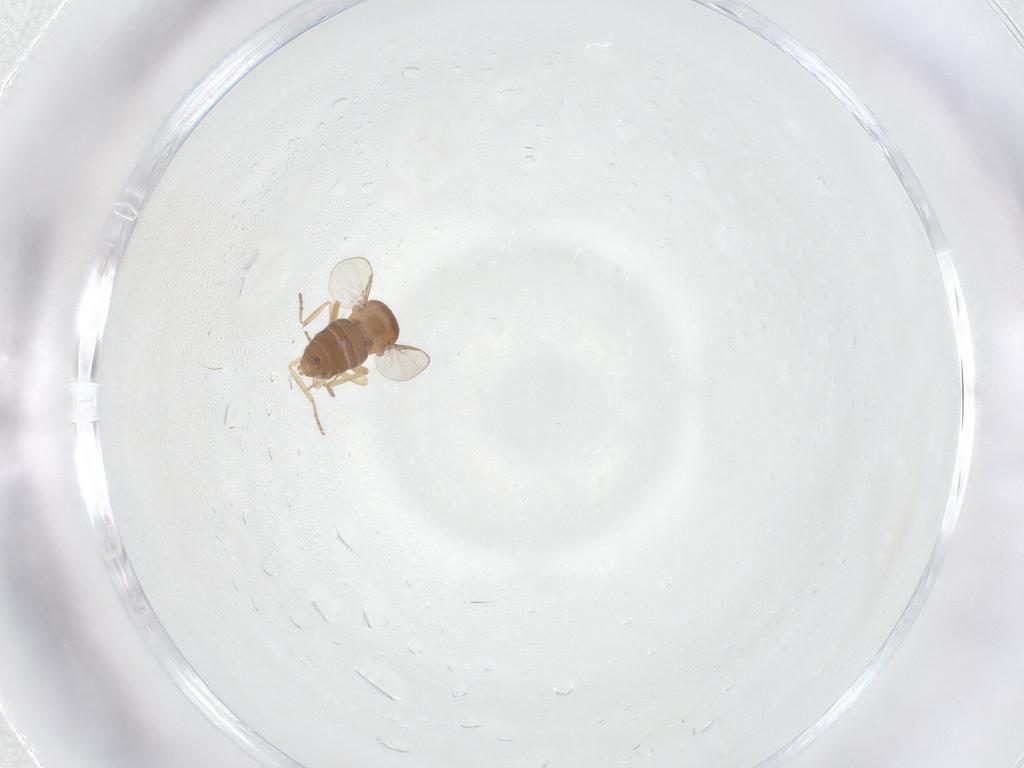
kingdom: Animalia
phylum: Arthropoda
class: Insecta
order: Diptera
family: Ceratopogonidae
